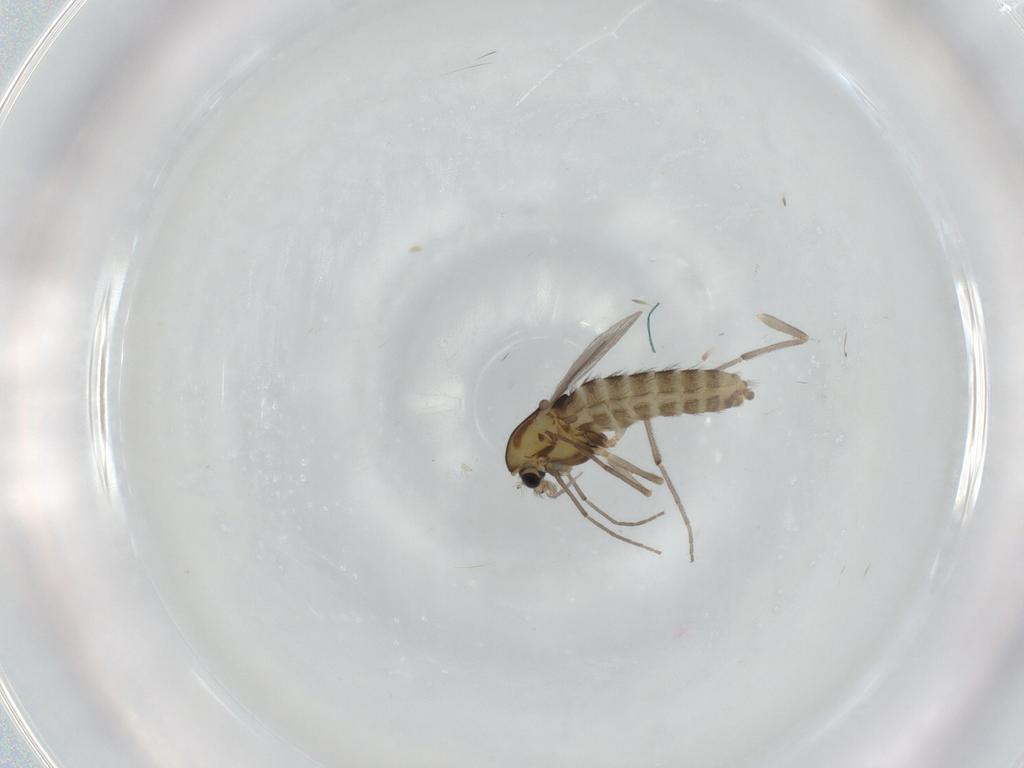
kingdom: Animalia
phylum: Arthropoda
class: Insecta
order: Diptera
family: Chironomidae
